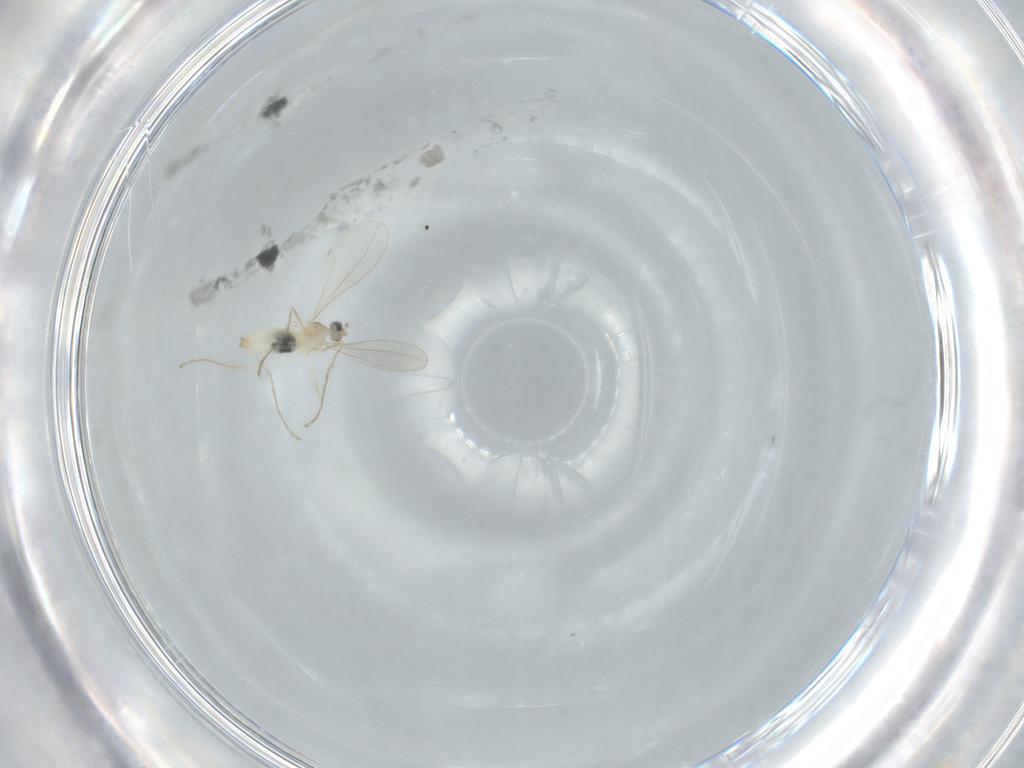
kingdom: Animalia
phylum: Arthropoda
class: Insecta
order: Diptera
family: Cecidomyiidae
